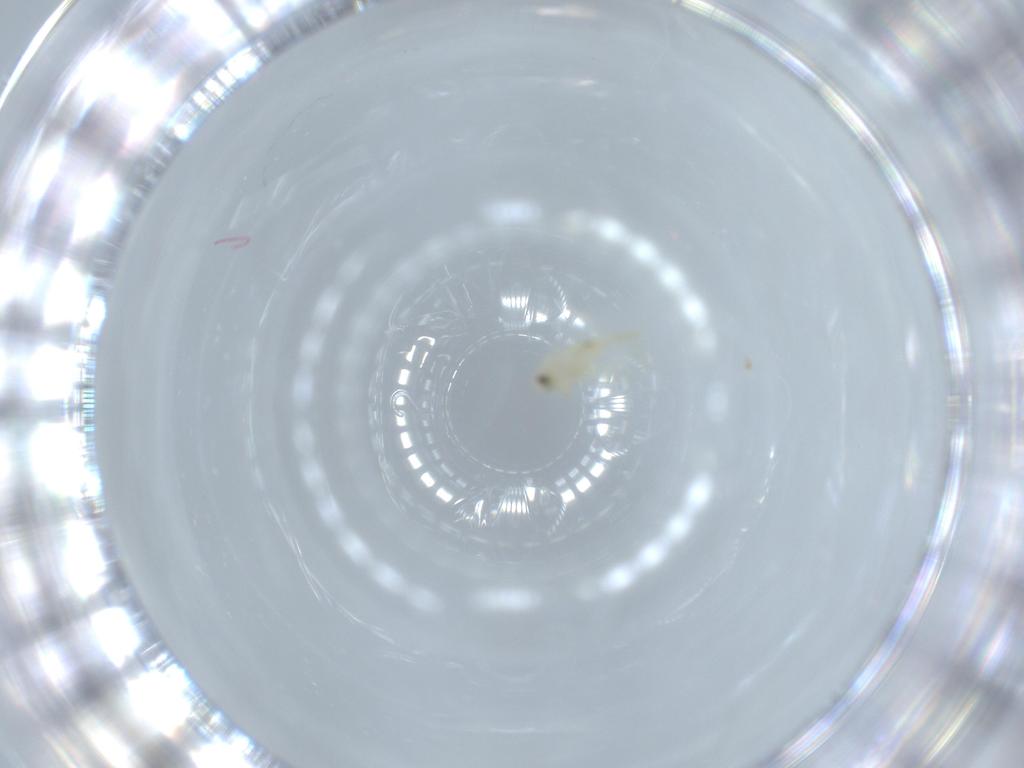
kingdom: Animalia
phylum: Arthropoda
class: Insecta
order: Hemiptera
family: Aleyrodidae
